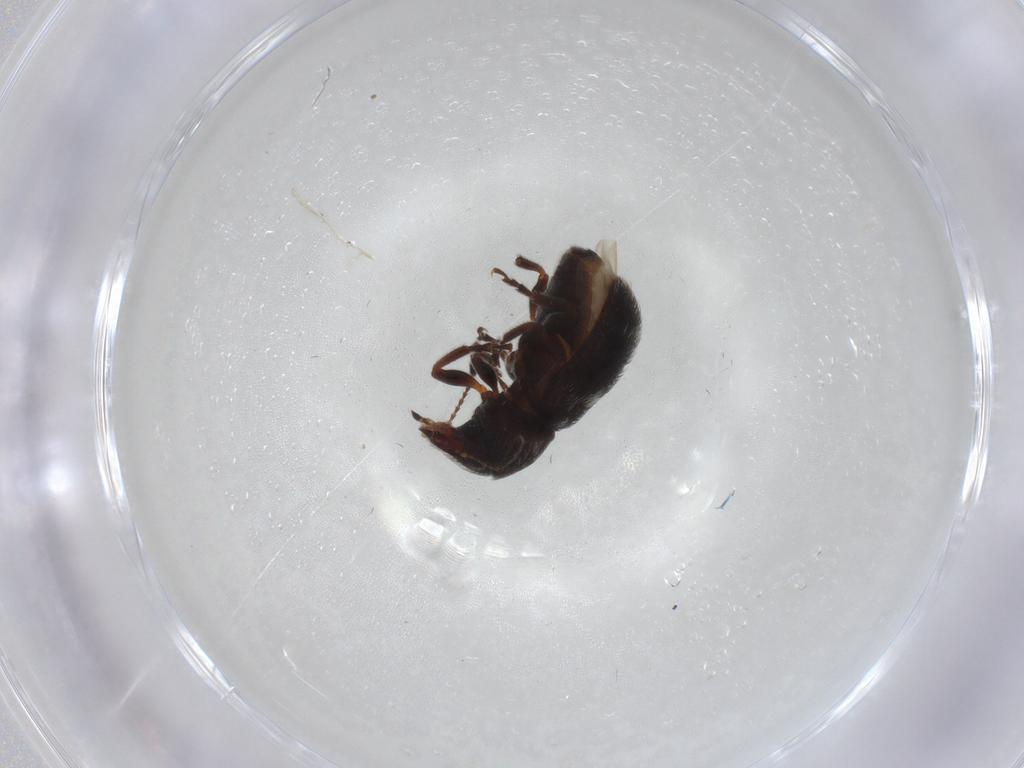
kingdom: Animalia
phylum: Arthropoda
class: Insecta
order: Coleoptera
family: Anthribidae
